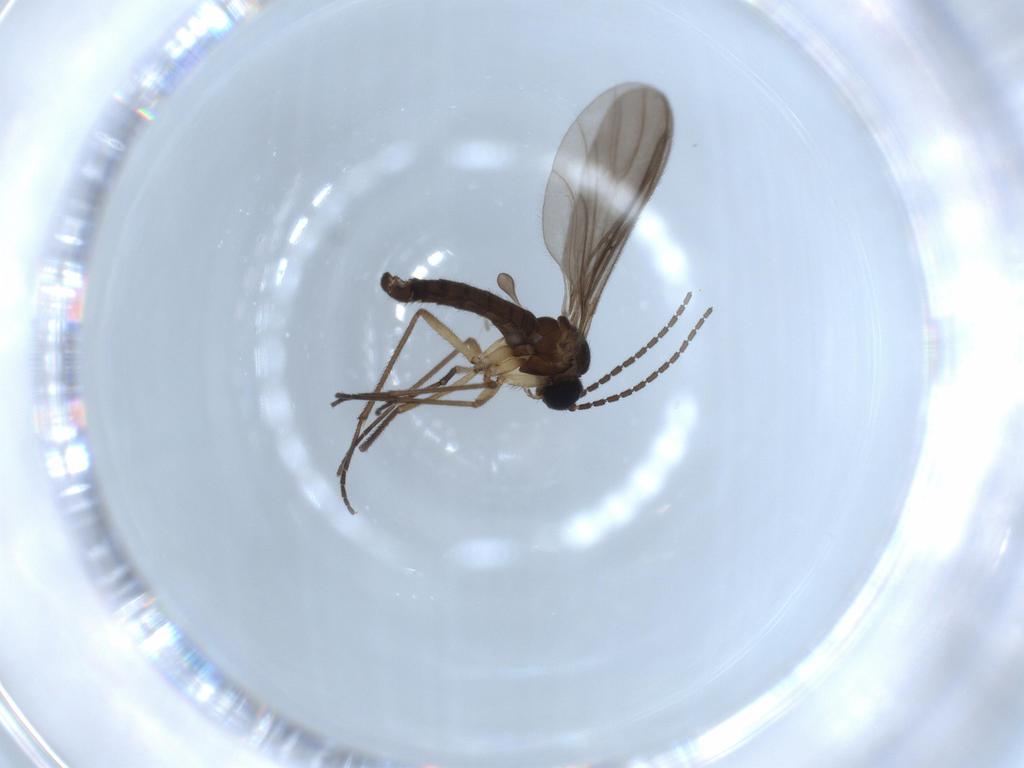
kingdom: Animalia
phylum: Arthropoda
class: Insecta
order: Diptera
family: Sciaridae
